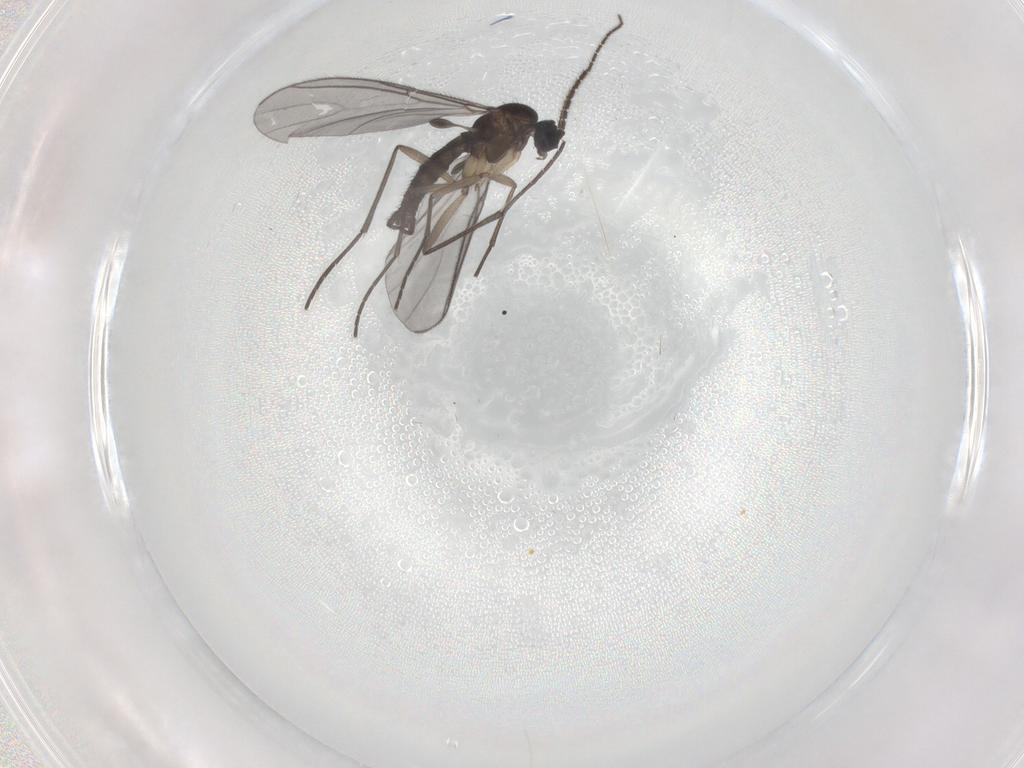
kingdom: Animalia
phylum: Arthropoda
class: Insecta
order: Diptera
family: Sciaridae
